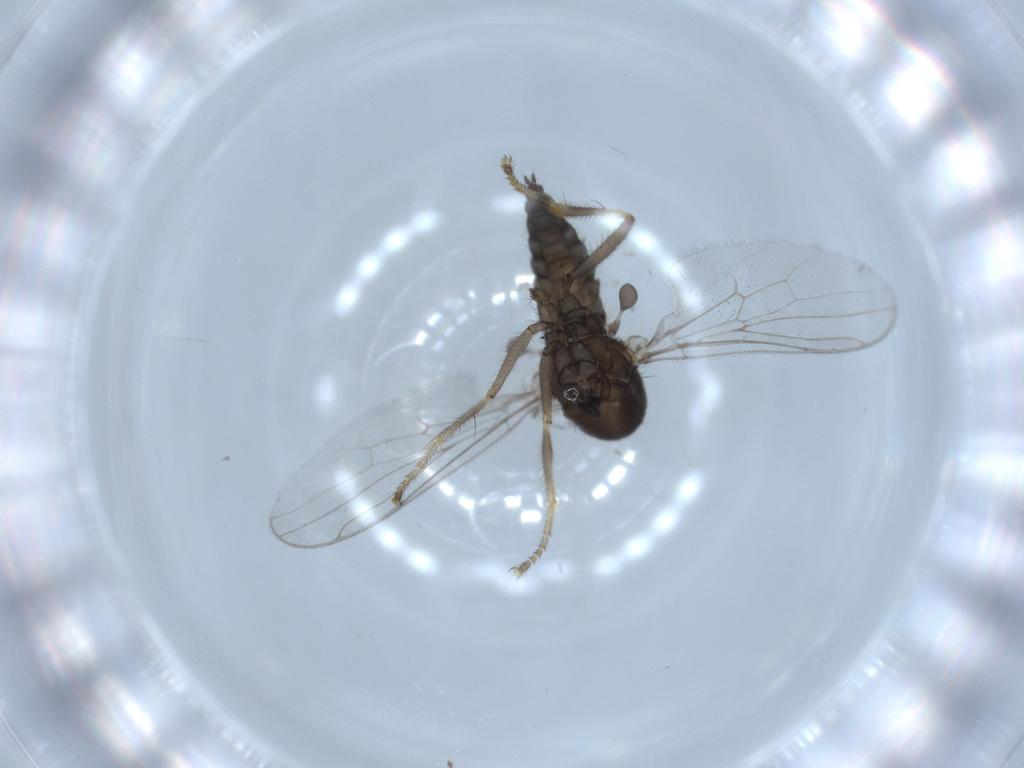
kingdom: Animalia
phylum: Arthropoda
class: Insecta
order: Diptera
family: Hybotidae
